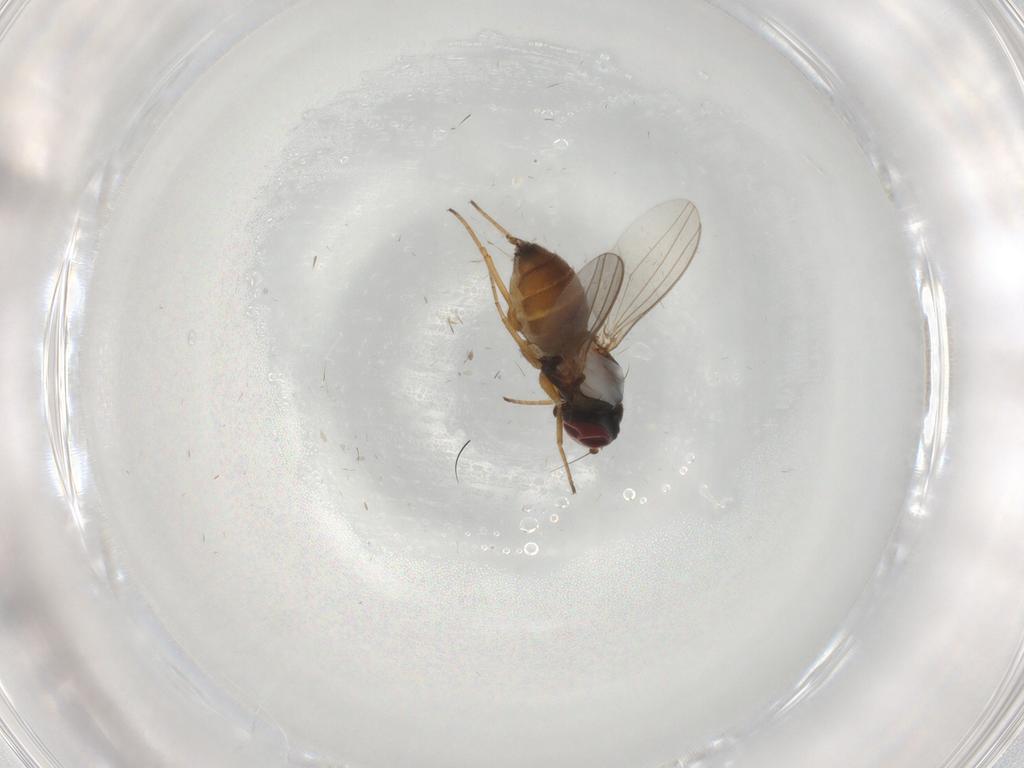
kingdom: Animalia
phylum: Arthropoda
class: Insecta
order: Diptera
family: Dolichopodidae
